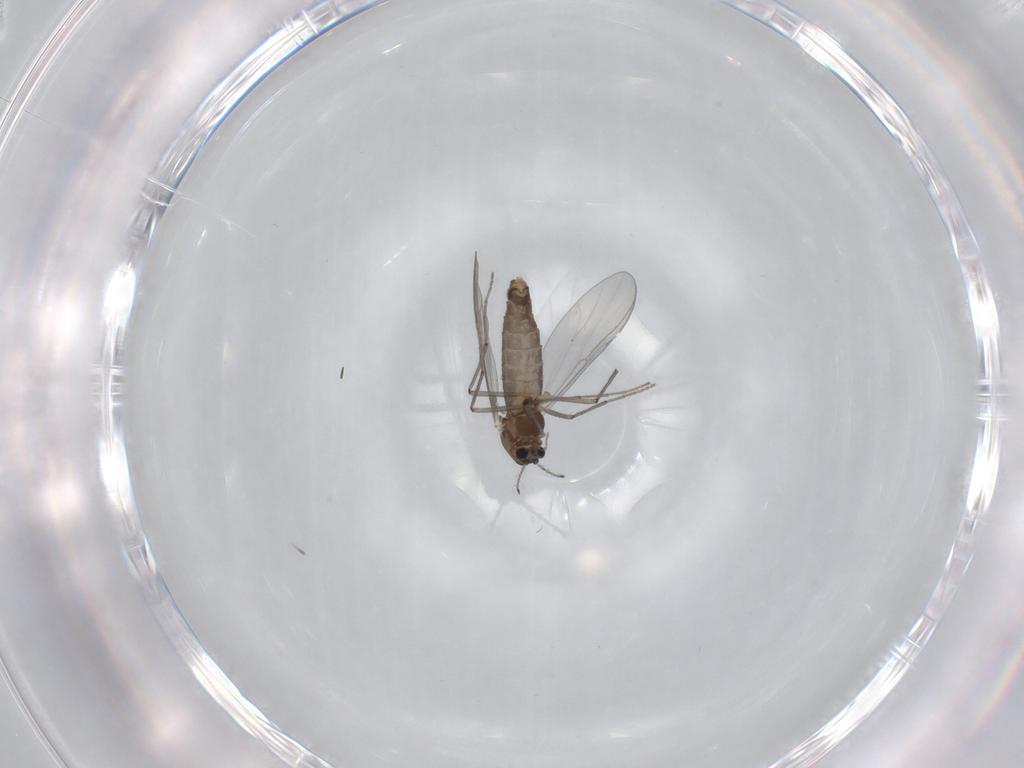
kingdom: Animalia
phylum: Arthropoda
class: Insecta
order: Diptera
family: Chironomidae
